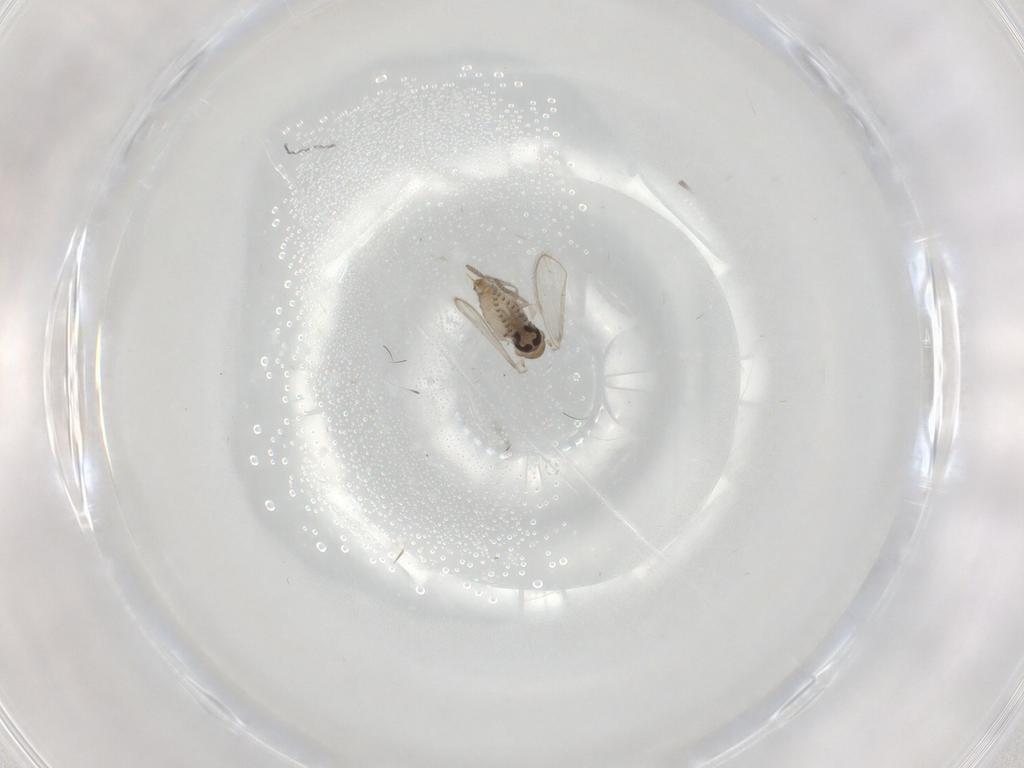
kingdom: Animalia
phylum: Arthropoda
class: Insecta
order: Diptera
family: Psychodidae
